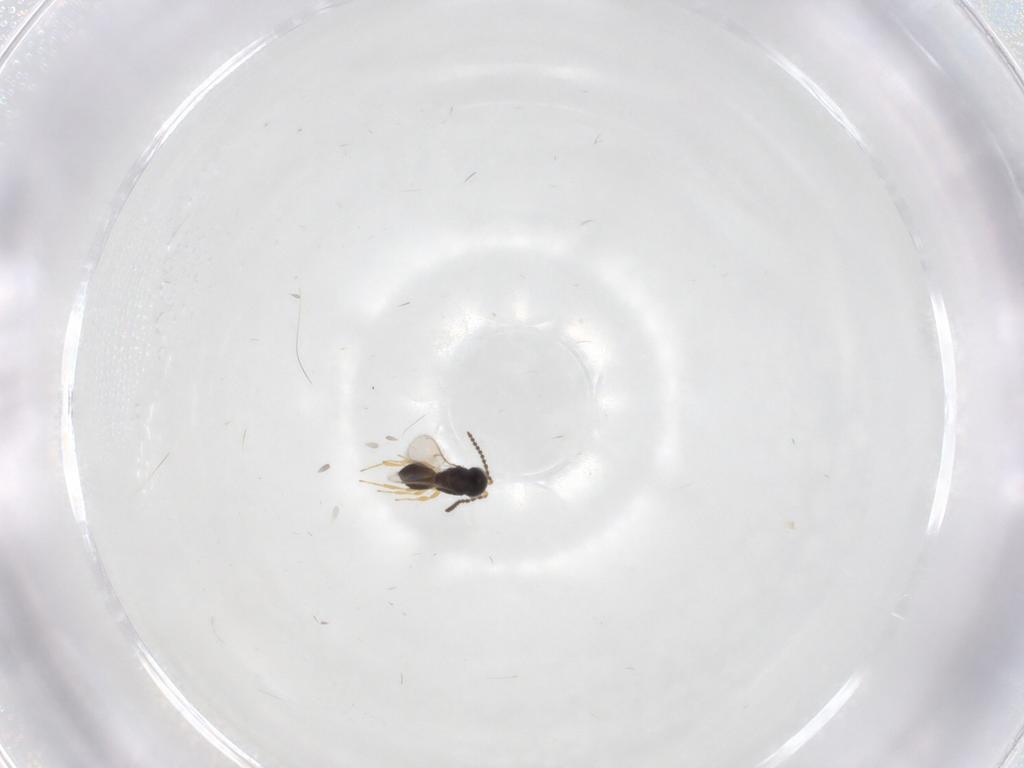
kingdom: Animalia
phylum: Arthropoda
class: Insecta
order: Hymenoptera
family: Scelionidae
